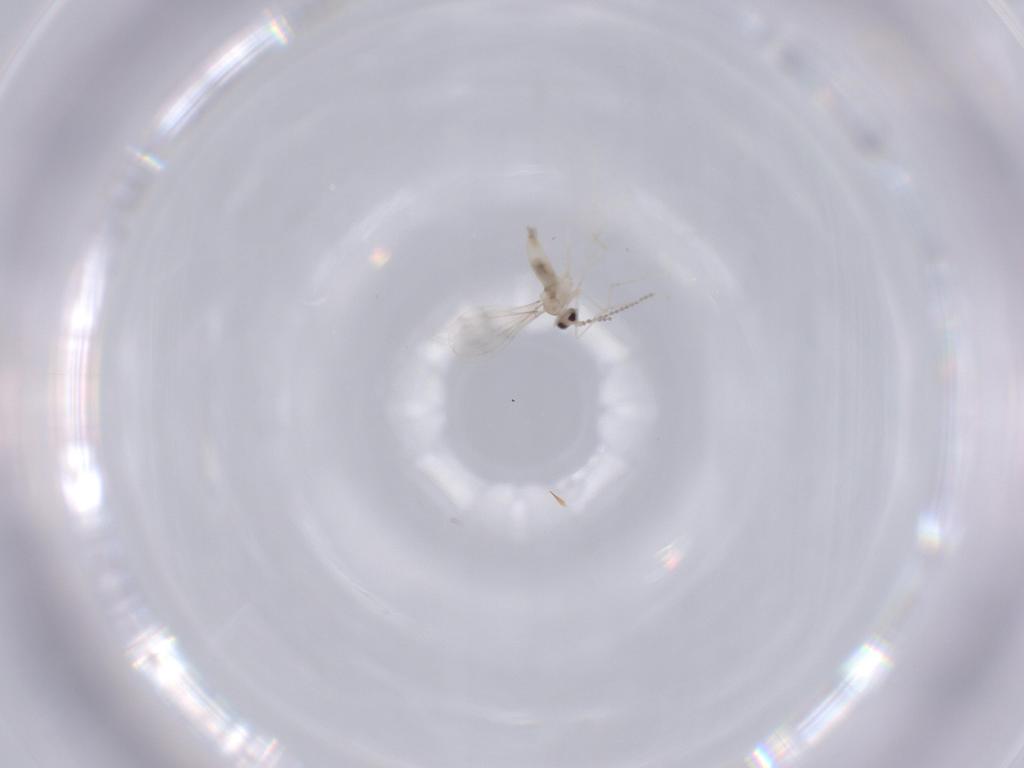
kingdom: Animalia
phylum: Arthropoda
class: Insecta
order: Diptera
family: Cecidomyiidae
